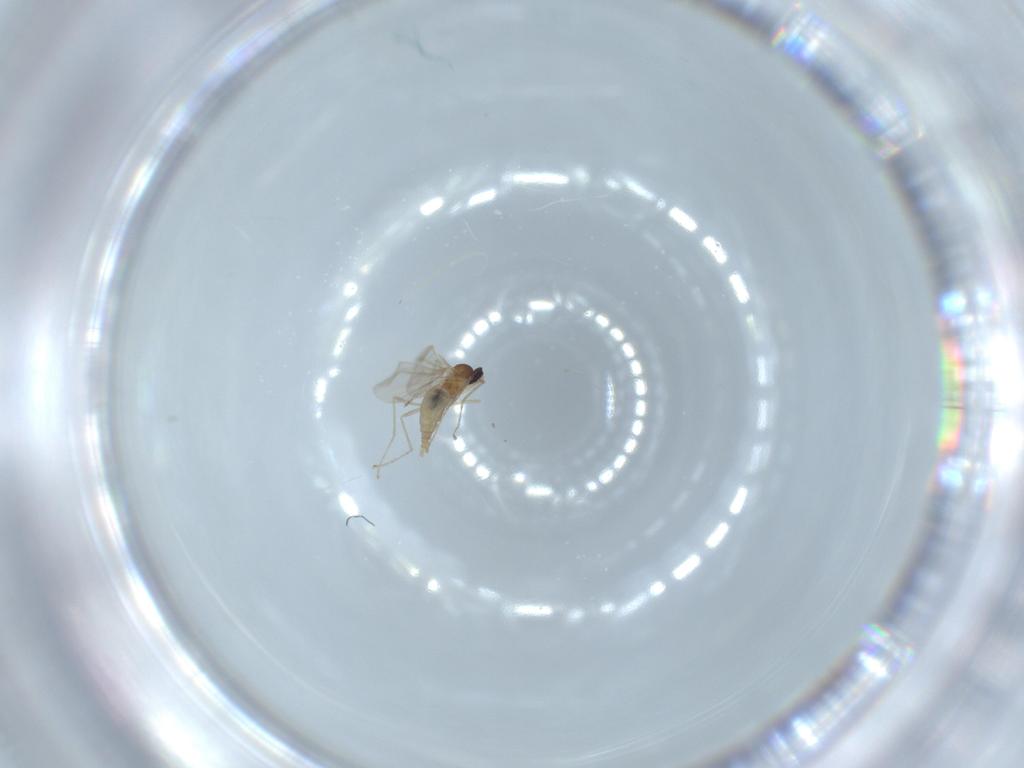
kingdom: Animalia
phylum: Arthropoda
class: Insecta
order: Diptera
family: Cecidomyiidae
